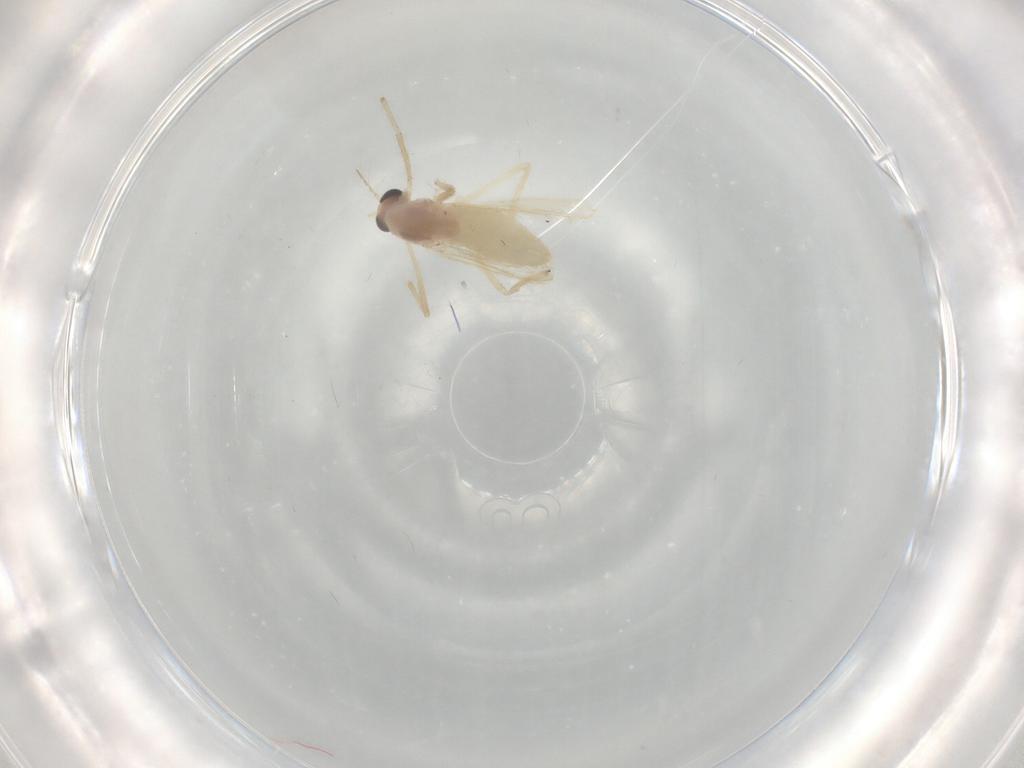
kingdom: Animalia
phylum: Arthropoda
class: Insecta
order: Diptera
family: Chironomidae
